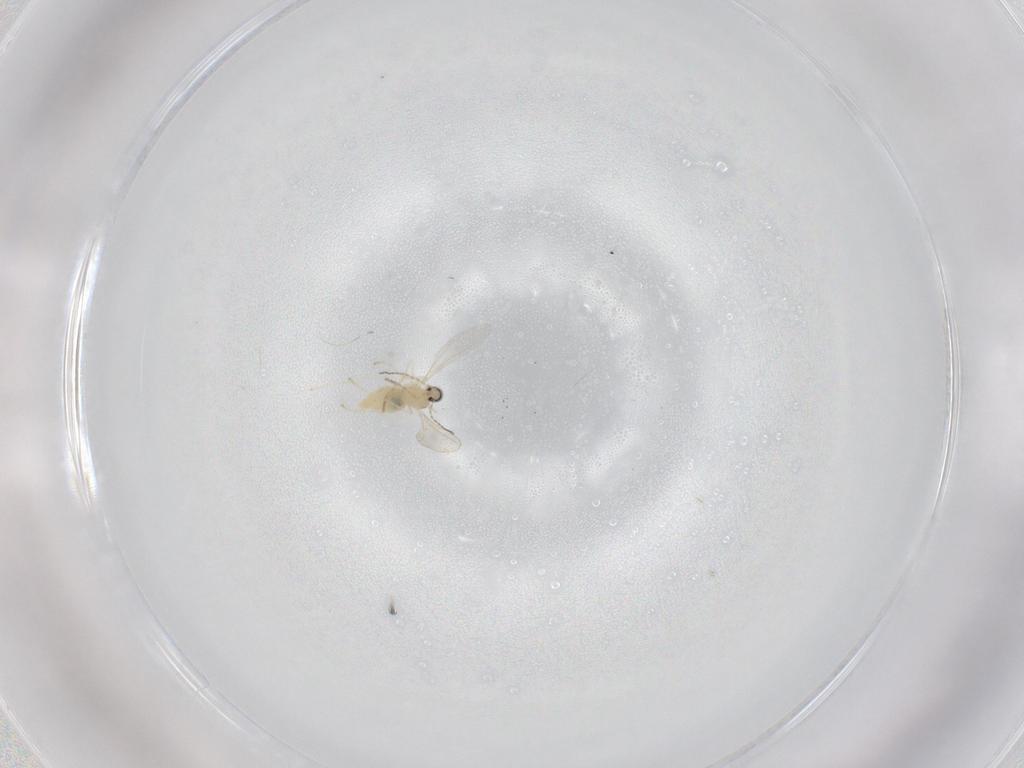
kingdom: Animalia
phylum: Arthropoda
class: Insecta
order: Diptera
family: Cecidomyiidae
